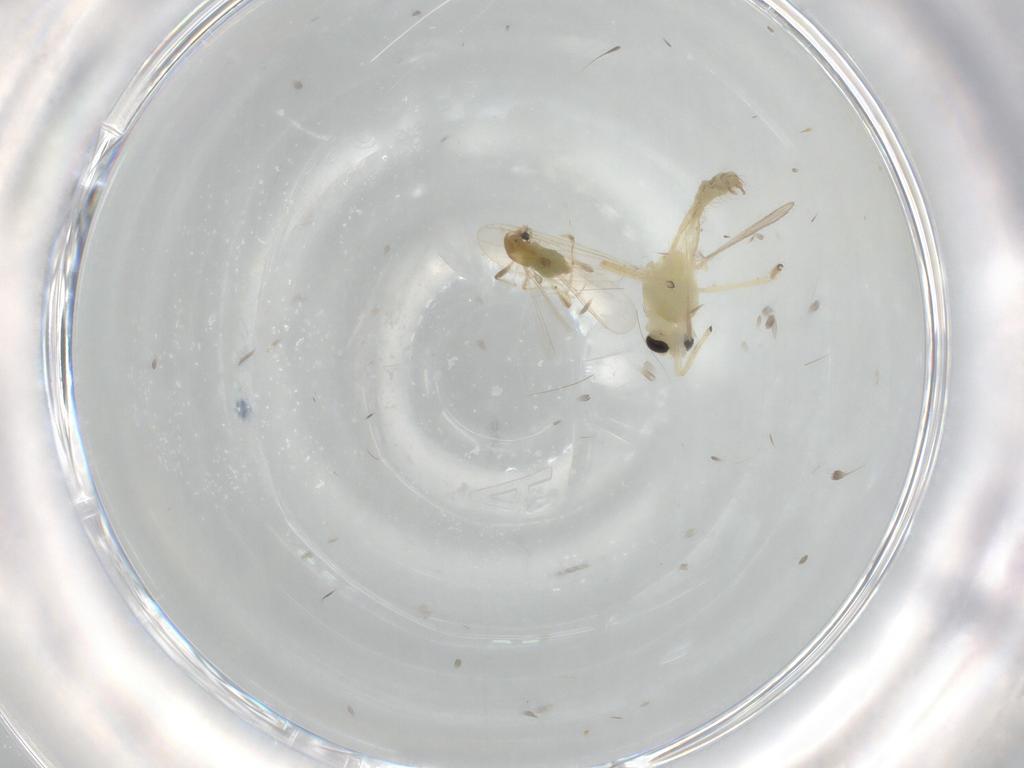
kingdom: Animalia
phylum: Arthropoda
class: Insecta
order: Diptera
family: Chironomidae
